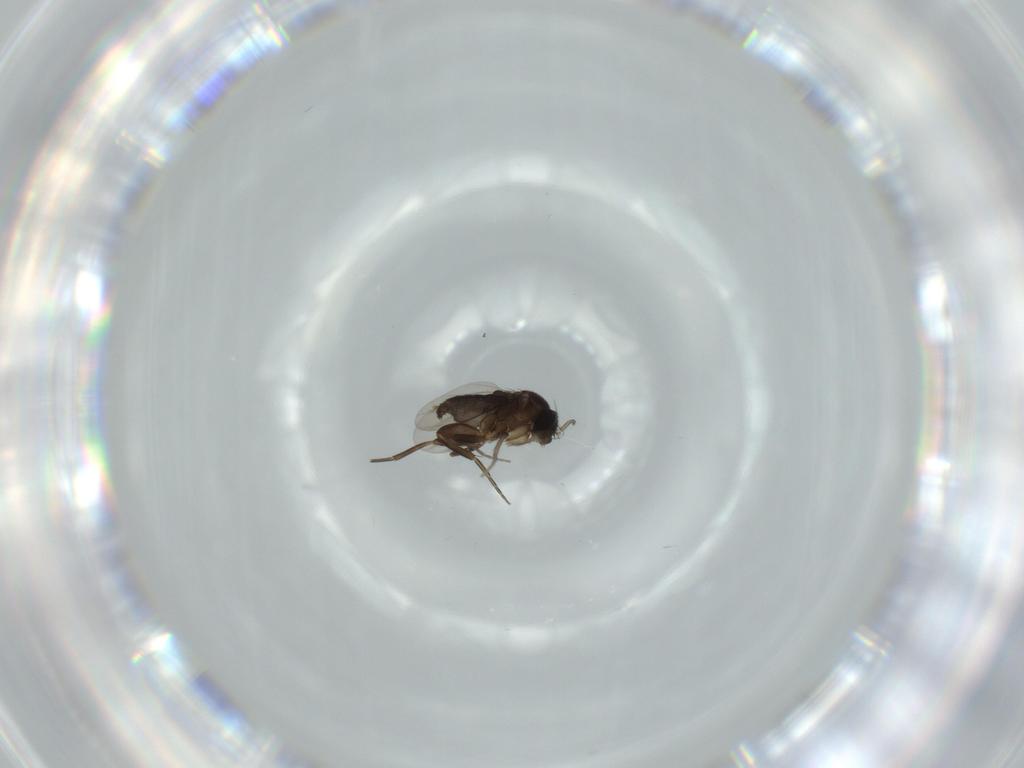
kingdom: Animalia
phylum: Arthropoda
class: Insecta
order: Diptera
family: Phoridae
